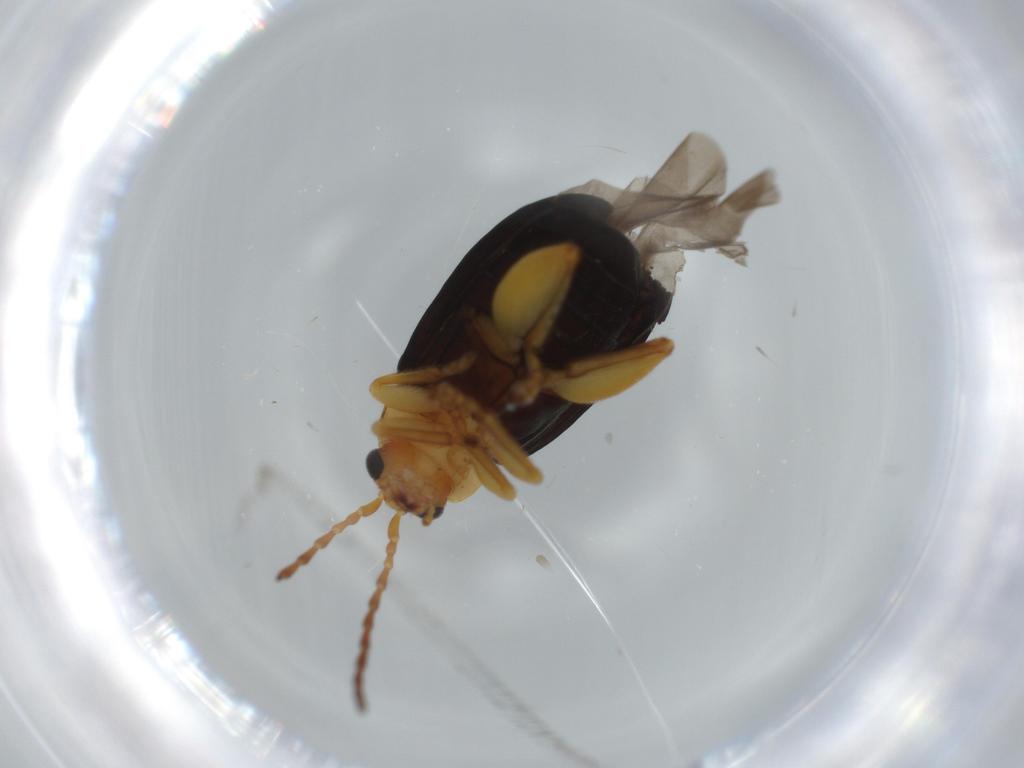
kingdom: Animalia
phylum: Arthropoda
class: Insecta
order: Coleoptera
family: Chrysomelidae
